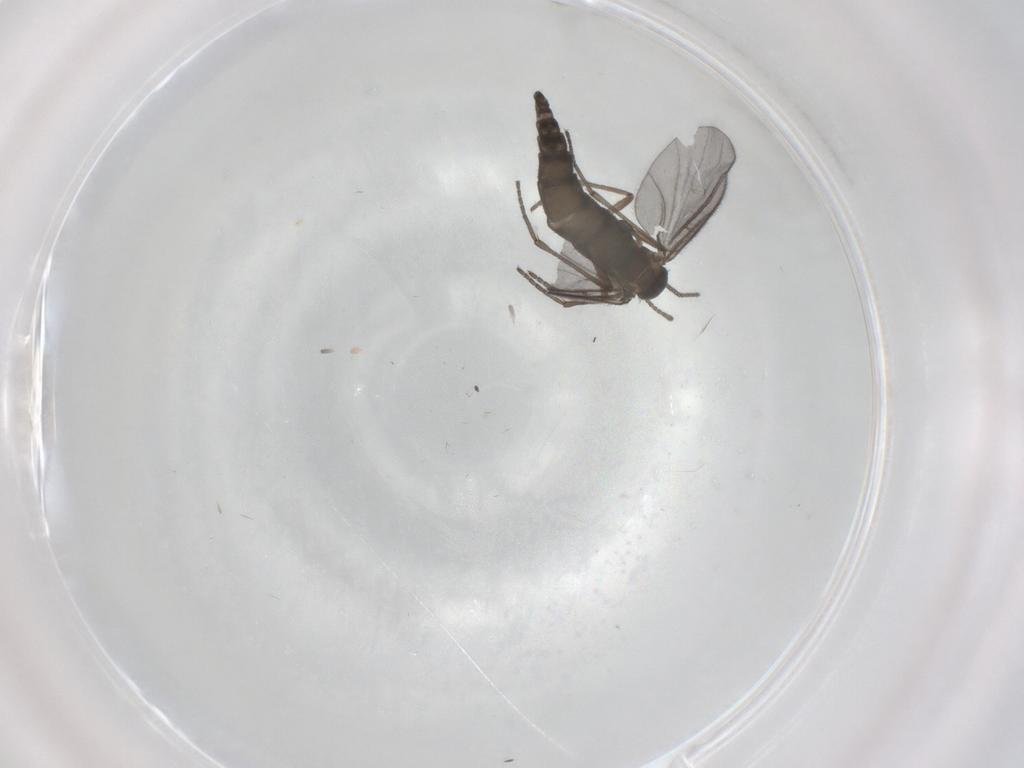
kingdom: Animalia
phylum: Arthropoda
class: Insecta
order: Diptera
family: Sciaridae
